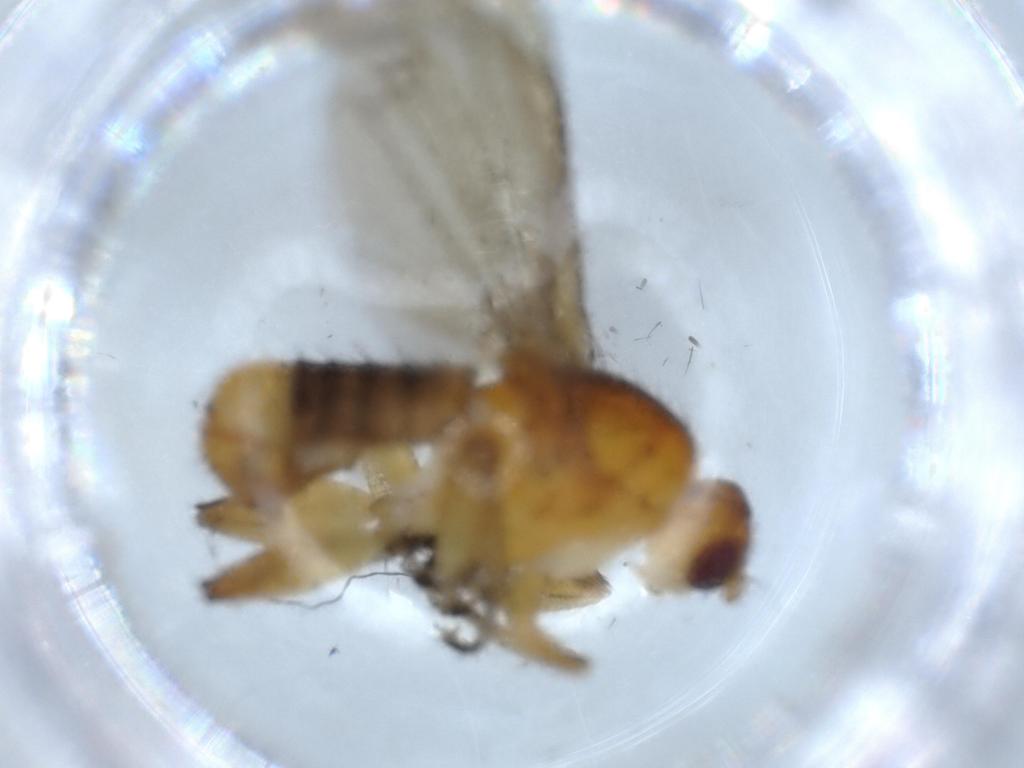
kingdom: Animalia
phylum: Arthropoda
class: Insecta
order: Diptera
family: Heleomyzidae
